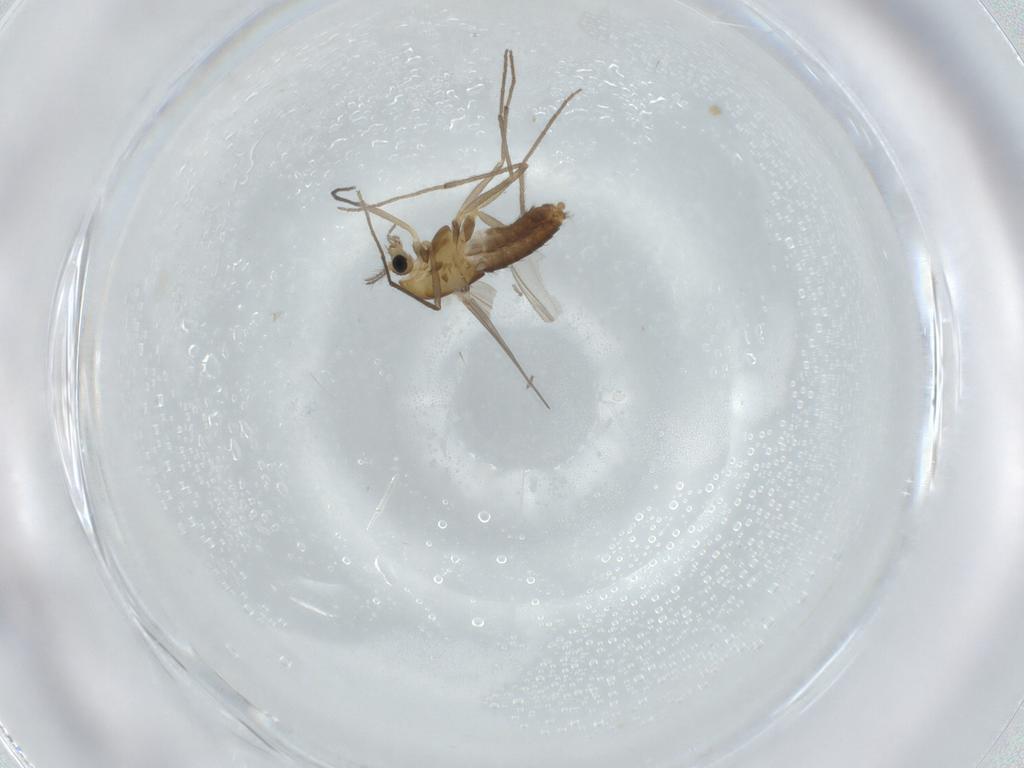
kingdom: Animalia
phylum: Arthropoda
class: Insecta
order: Diptera
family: Chironomidae
